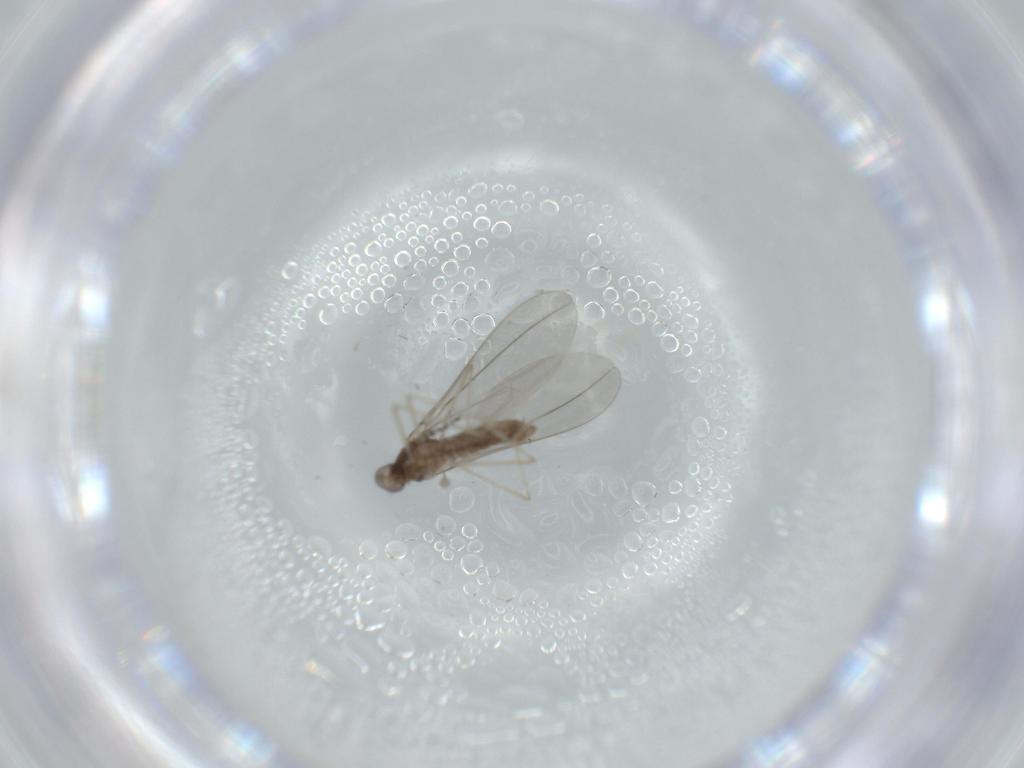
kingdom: Animalia
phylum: Arthropoda
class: Insecta
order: Diptera
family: Cecidomyiidae
